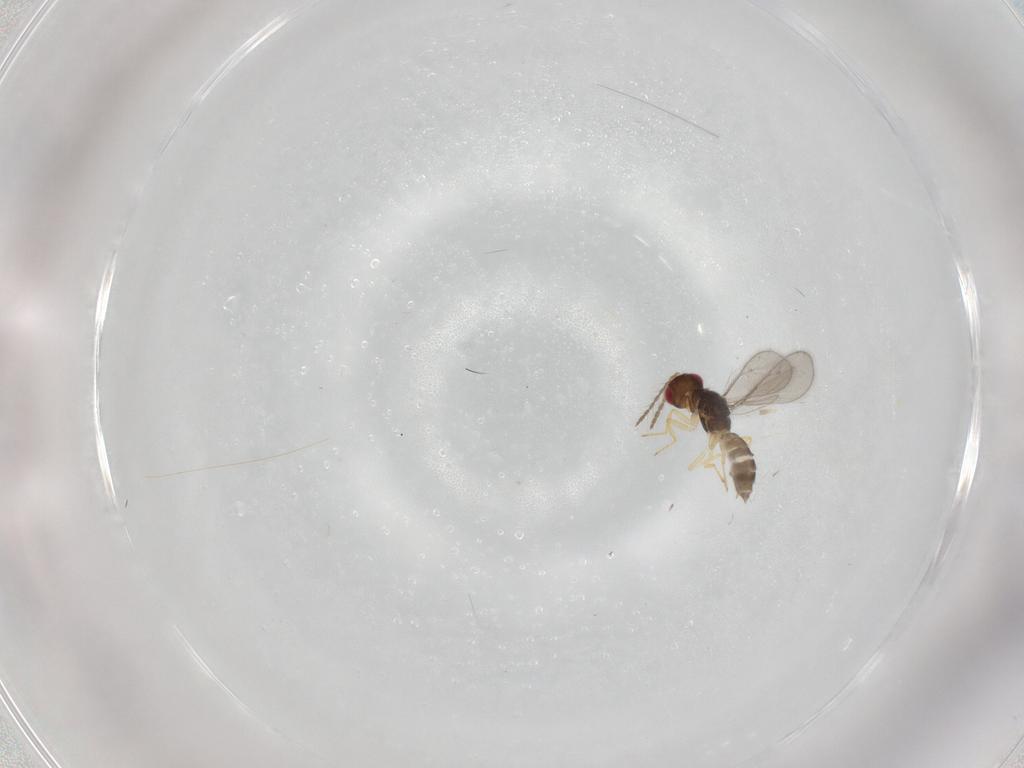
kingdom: Animalia
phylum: Arthropoda
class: Insecta
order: Hymenoptera
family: Eulophidae
